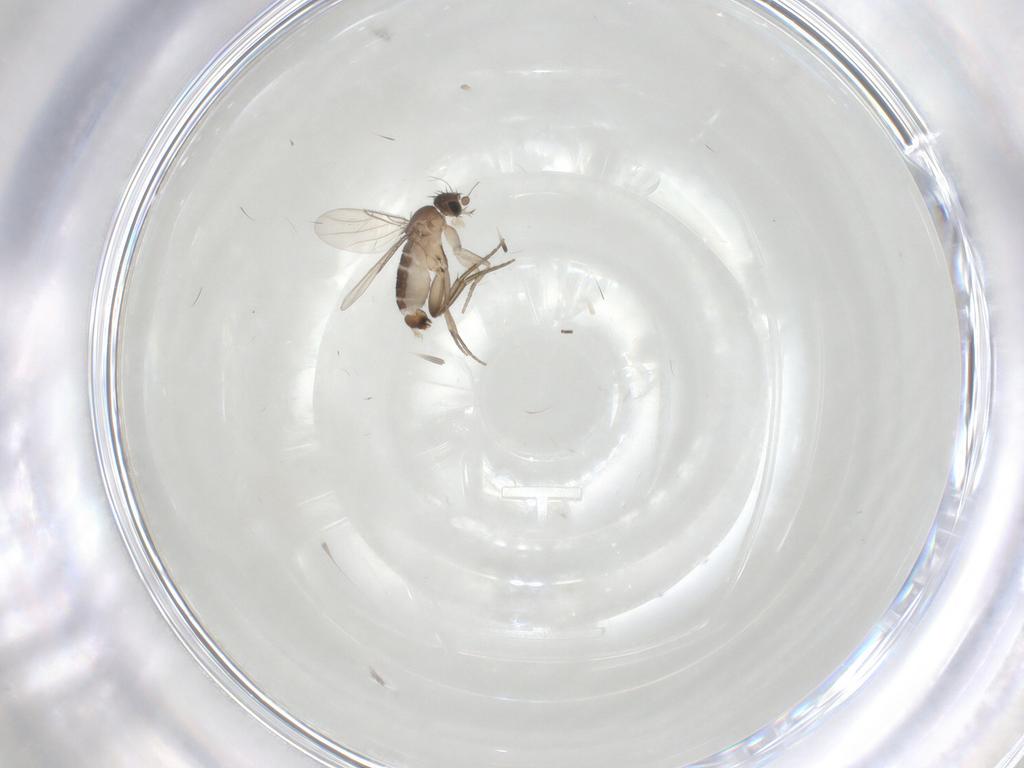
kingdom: Animalia
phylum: Arthropoda
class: Insecta
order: Diptera
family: Phoridae
